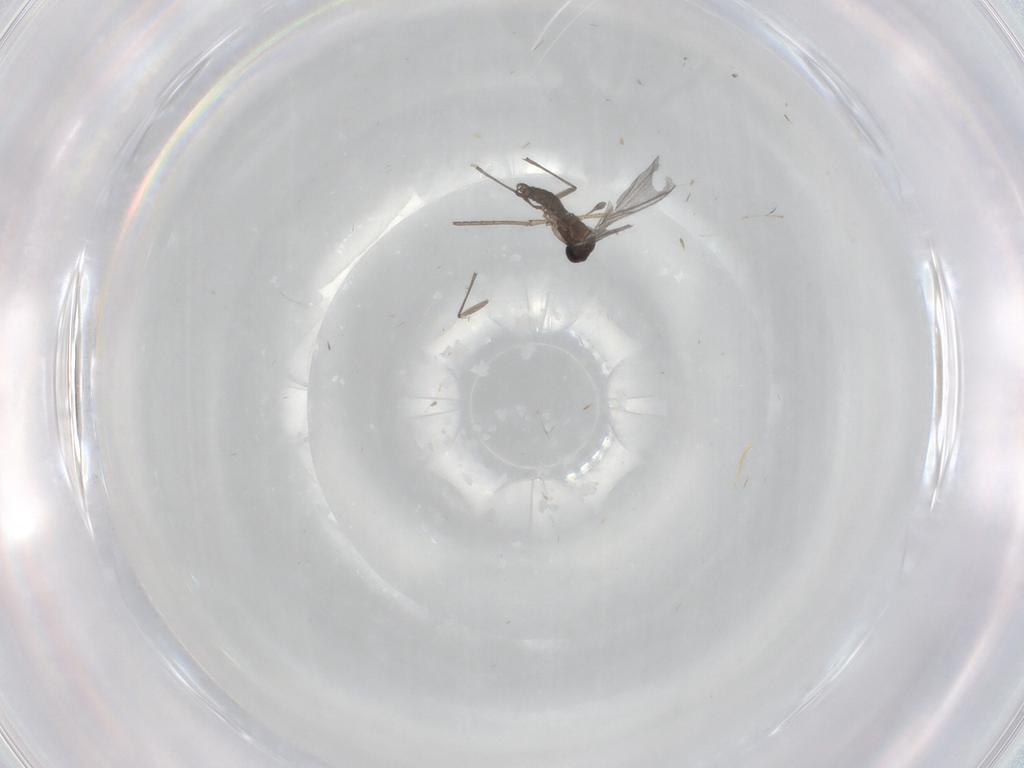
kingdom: Animalia
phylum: Arthropoda
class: Insecta
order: Diptera
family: Sciaridae
